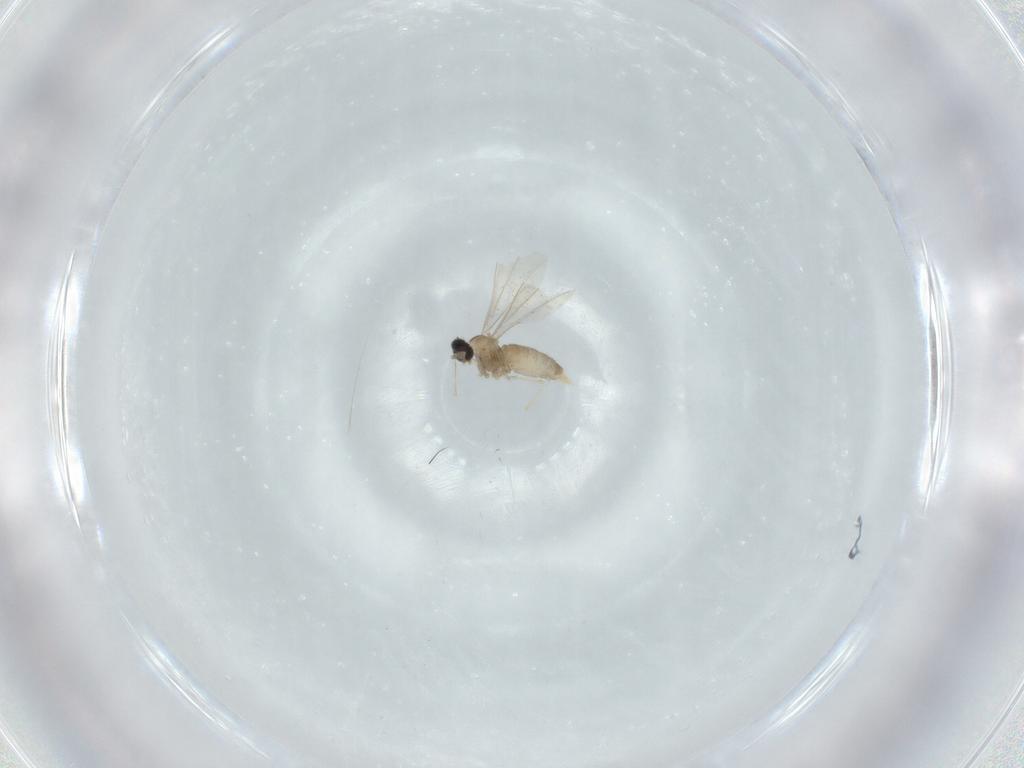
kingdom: Animalia
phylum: Arthropoda
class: Insecta
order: Diptera
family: Cecidomyiidae
